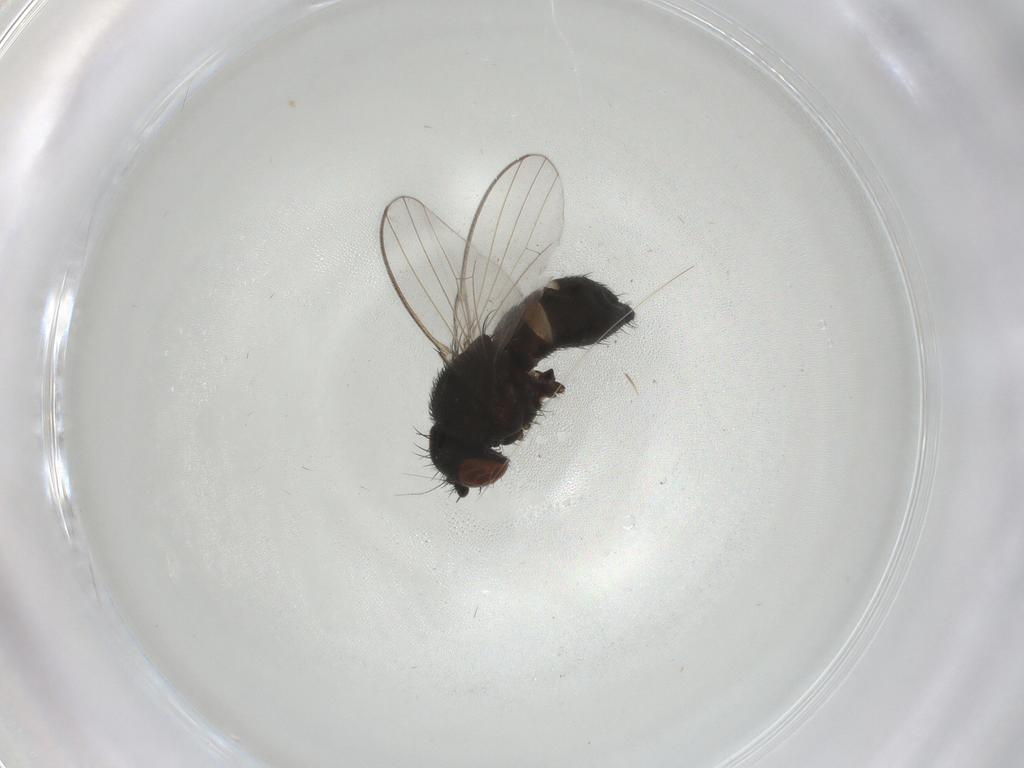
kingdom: Animalia
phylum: Arthropoda
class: Insecta
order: Diptera
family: Milichiidae
